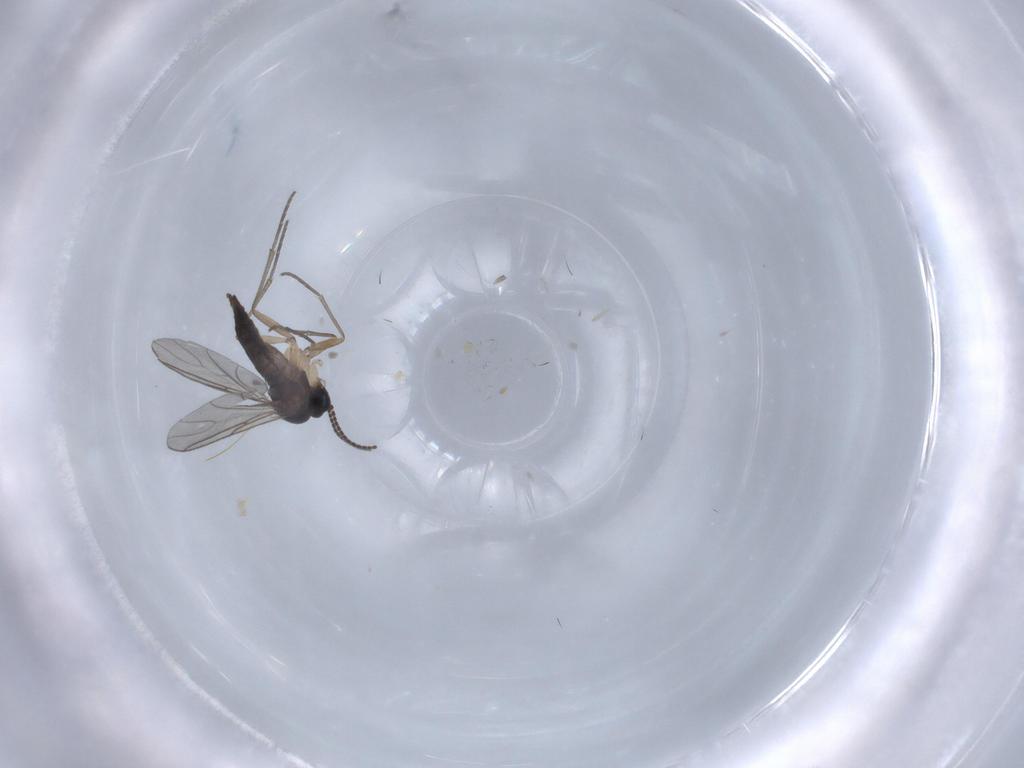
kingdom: Animalia
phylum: Arthropoda
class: Insecta
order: Diptera
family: Sciaridae
